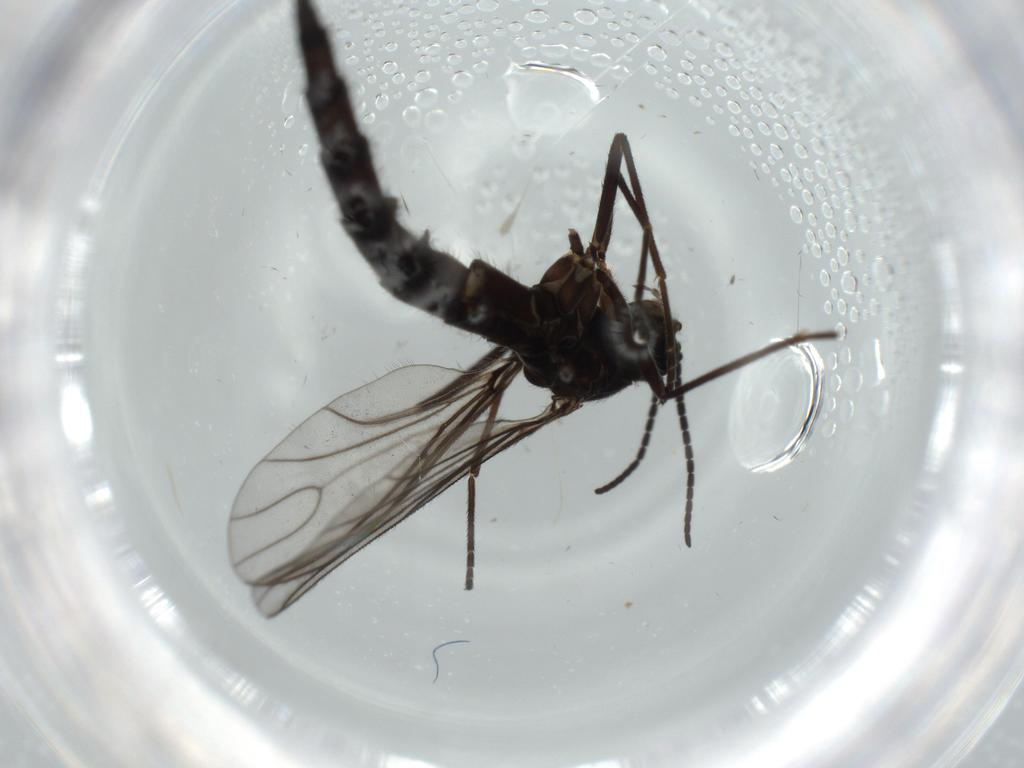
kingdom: Animalia
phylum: Arthropoda
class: Insecta
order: Diptera
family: Sciaridae
